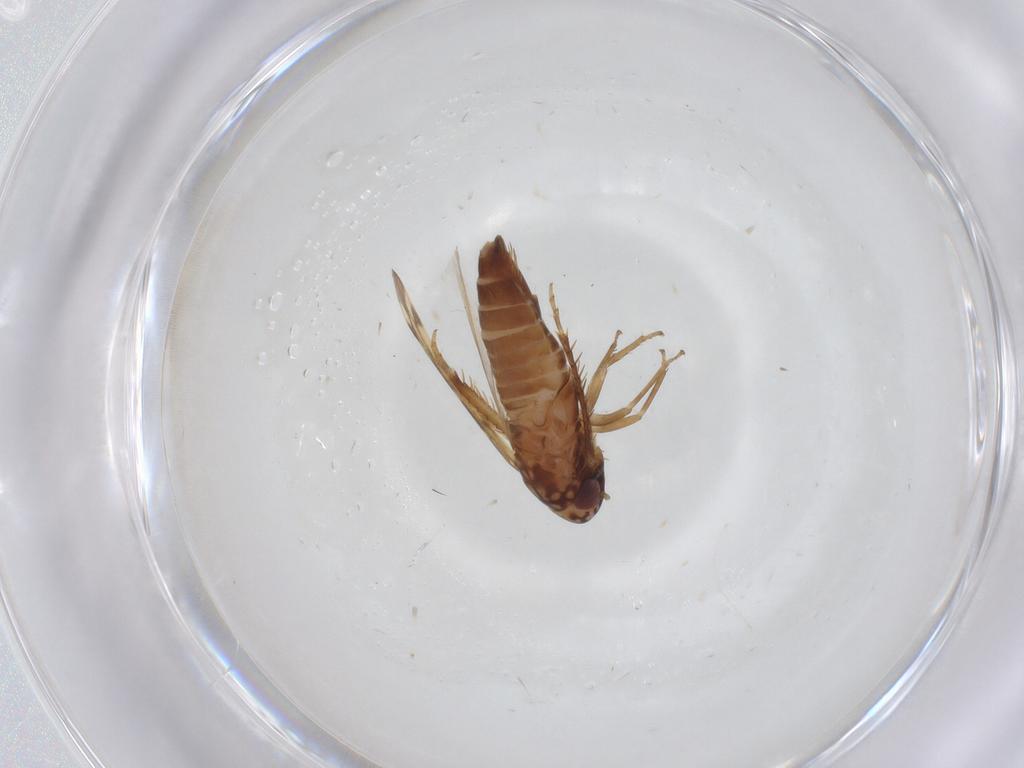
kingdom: Animalia
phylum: Arthropoda
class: Insecta
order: Hemiptera
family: Cicadellidae
